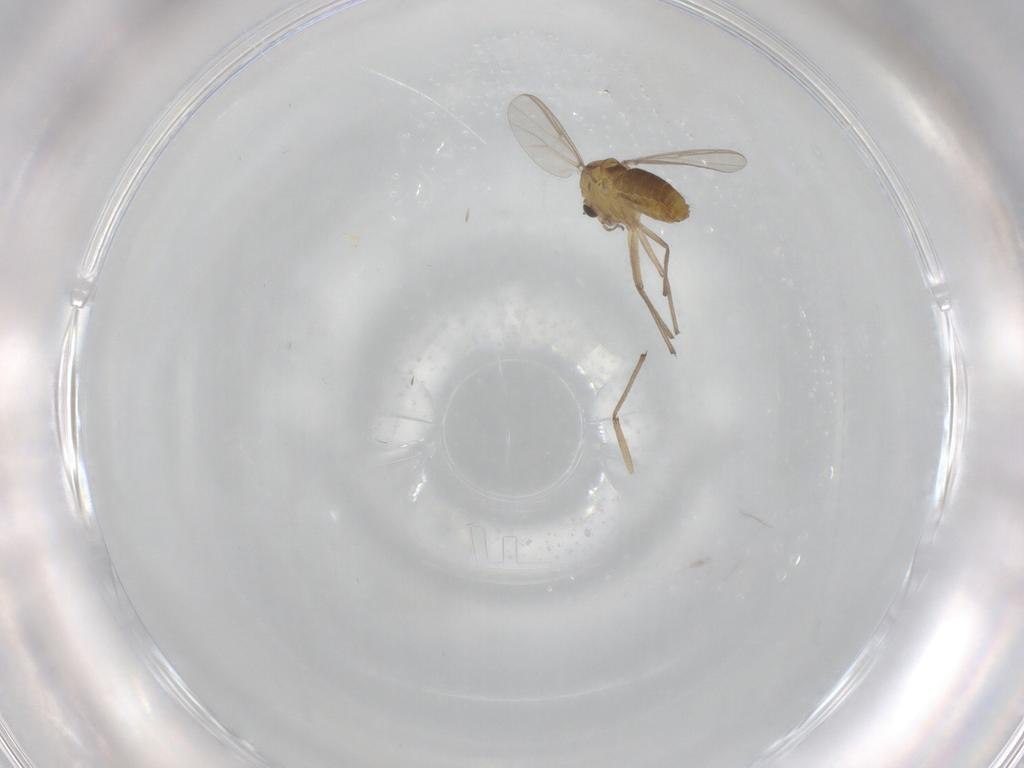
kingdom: Animalia
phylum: Arthropoda
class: Insecta
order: Diptera
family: Chironomidae
